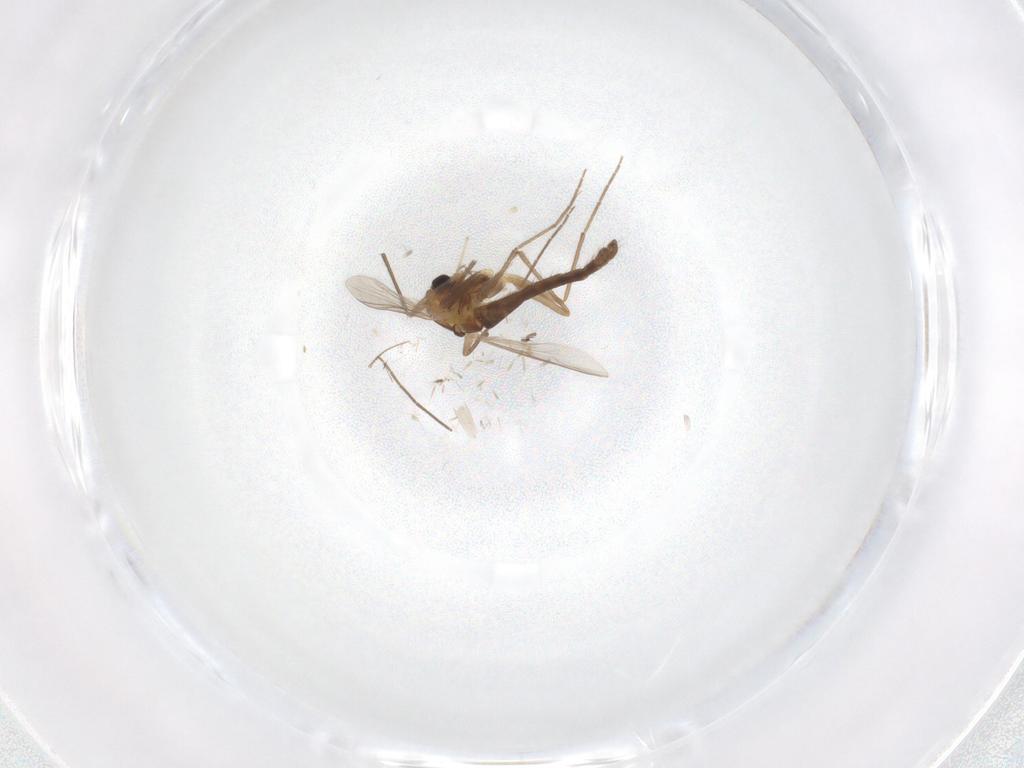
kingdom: Animalia
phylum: Arthropoda
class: Insecta
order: Diptera
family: Chironomidae
